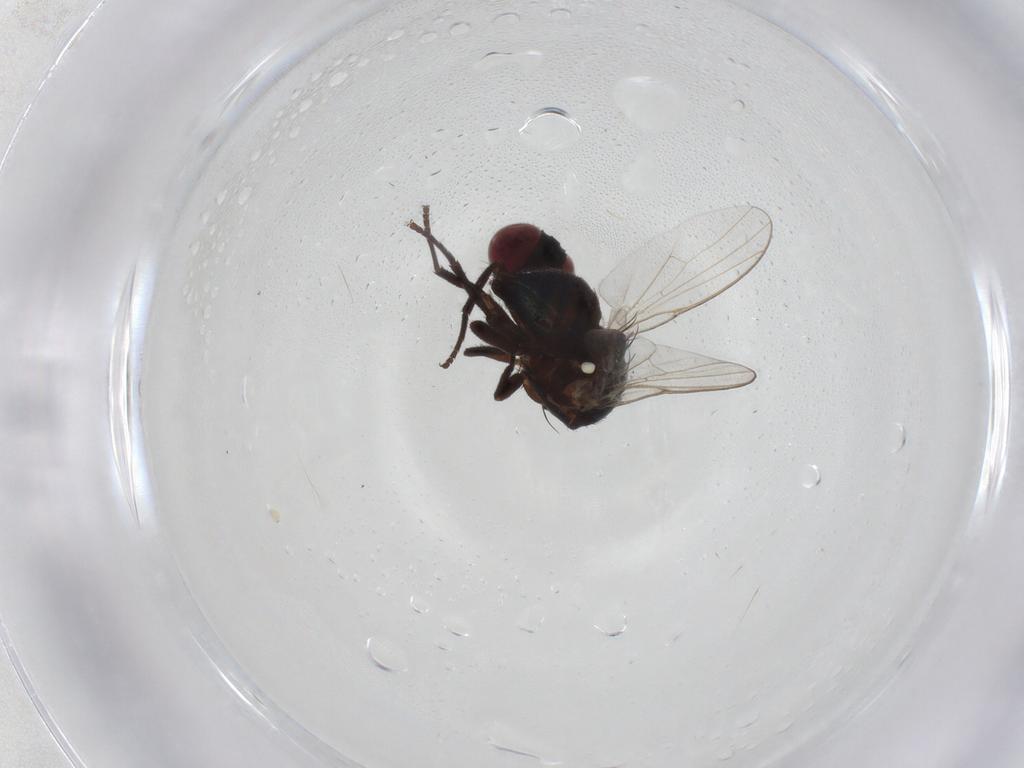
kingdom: Animalia
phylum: Arthropoda
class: Insecta
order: Diptera
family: Agromyzidae
